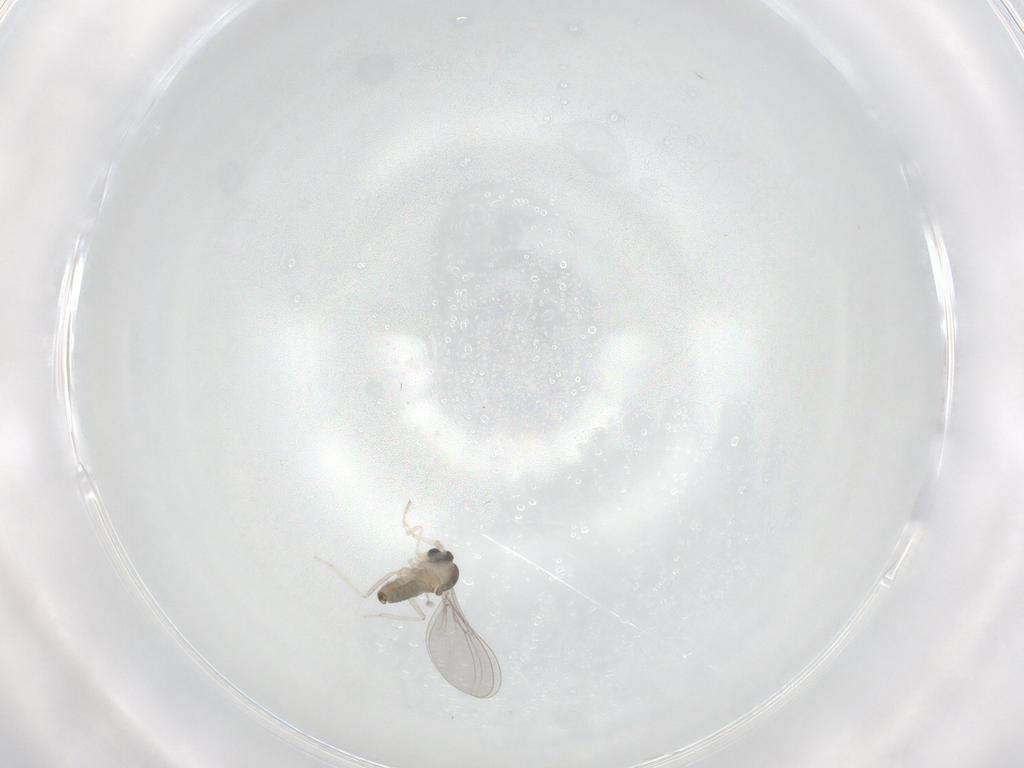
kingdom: Animalia
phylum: Arthropoda
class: Insecta
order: Diptera
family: Cecidomyiidae
